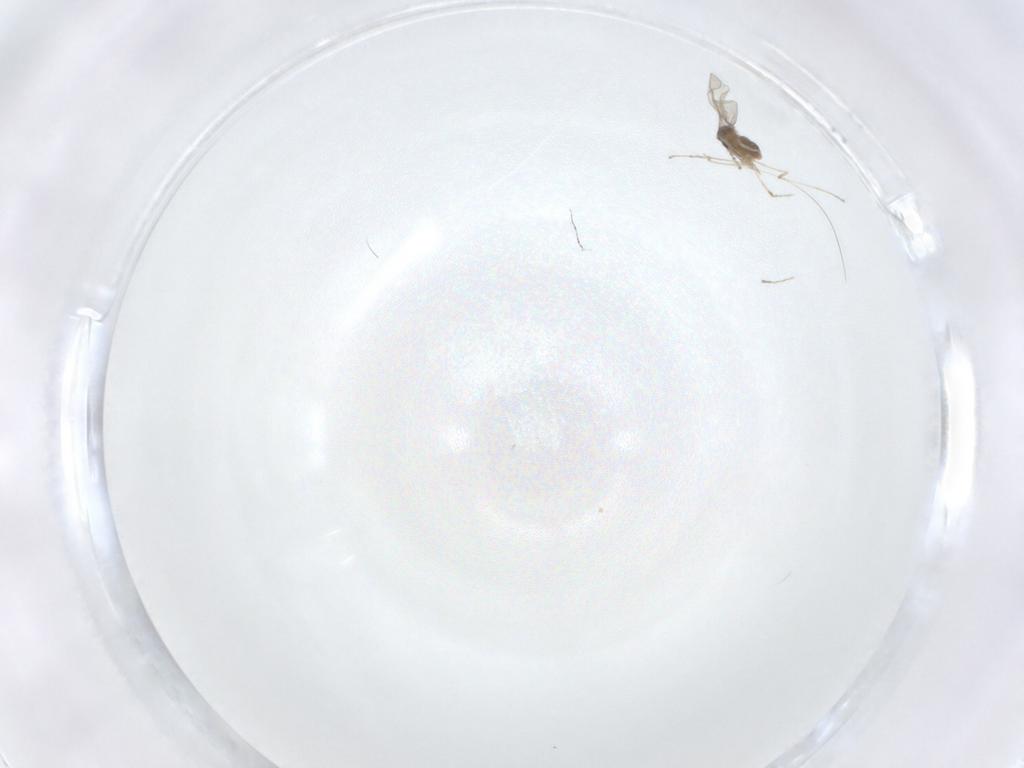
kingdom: Animalia
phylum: Arthropoda
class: Insecta
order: Diptera
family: Cecidomyiidae
